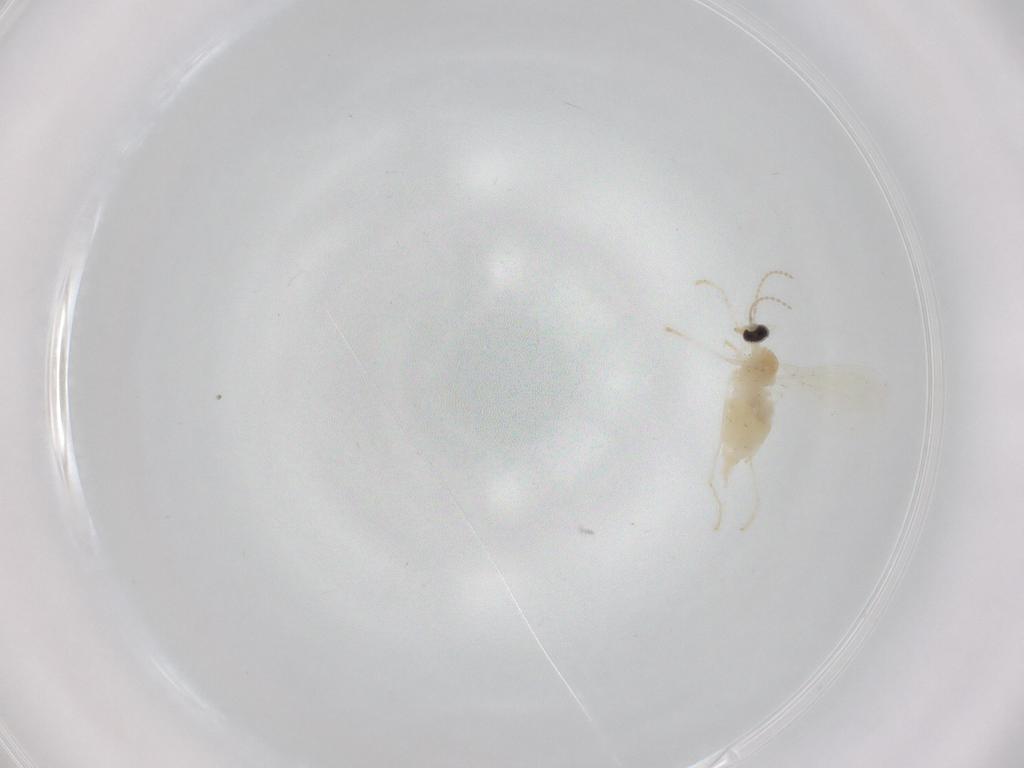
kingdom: Animalia
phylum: Arthropoda
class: Insecta
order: Diptera
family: Cecidomyiidae
